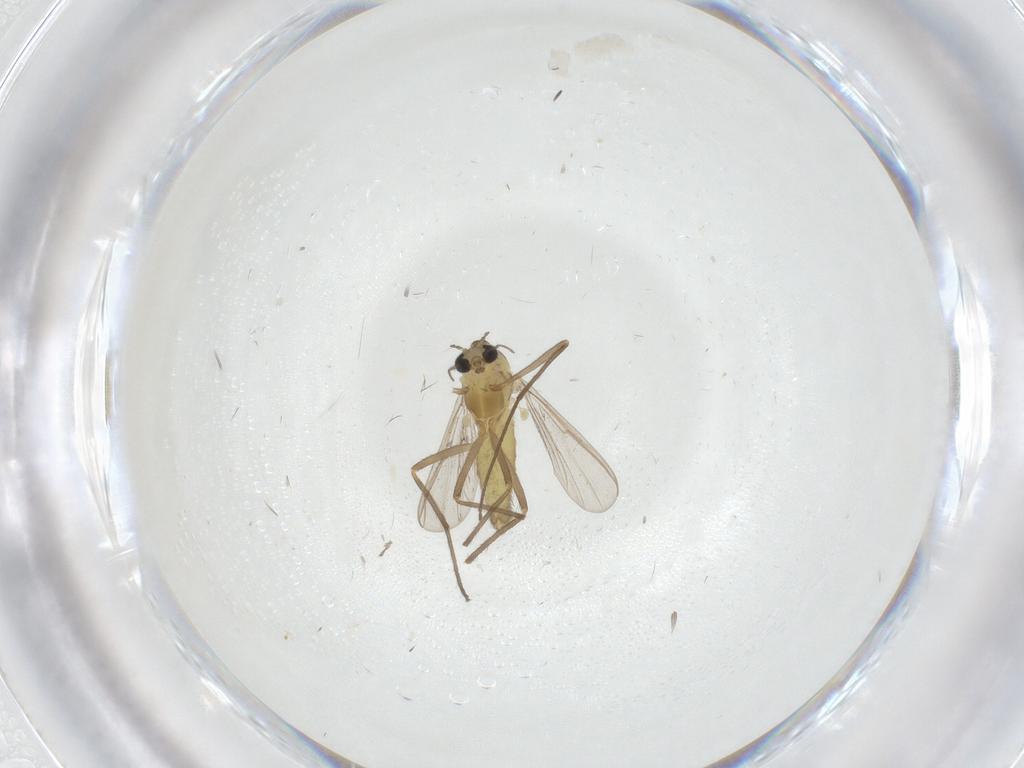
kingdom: Animalia
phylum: Arthropoda
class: Insecta
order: Diptera
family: Chironomidae
